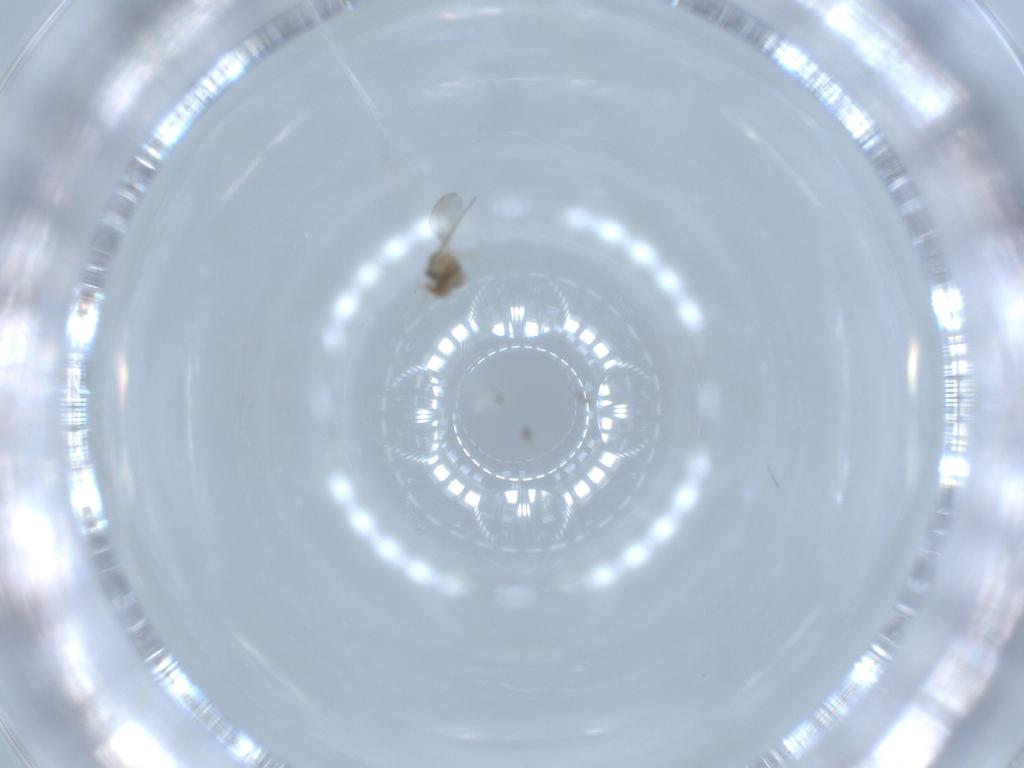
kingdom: Animalia
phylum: Arthropoda
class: Insecta
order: Diptera
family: Cecidomyiidae
